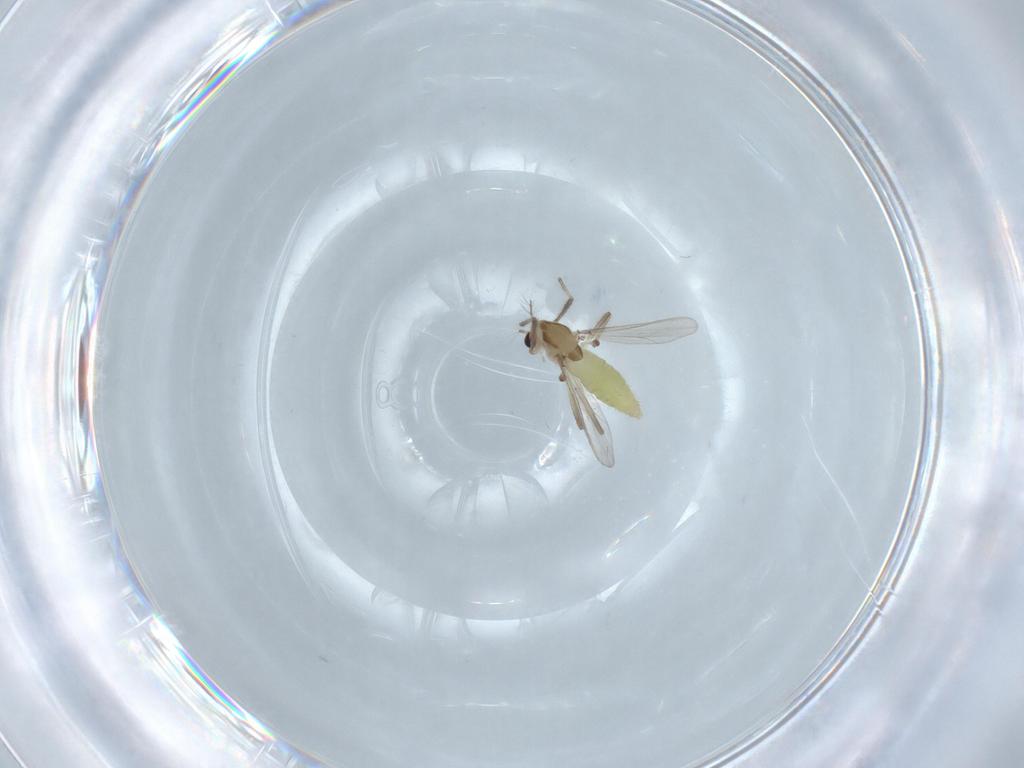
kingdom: Animalia
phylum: Arthropoda
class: Insecta
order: Diptera
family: Chironomidae
